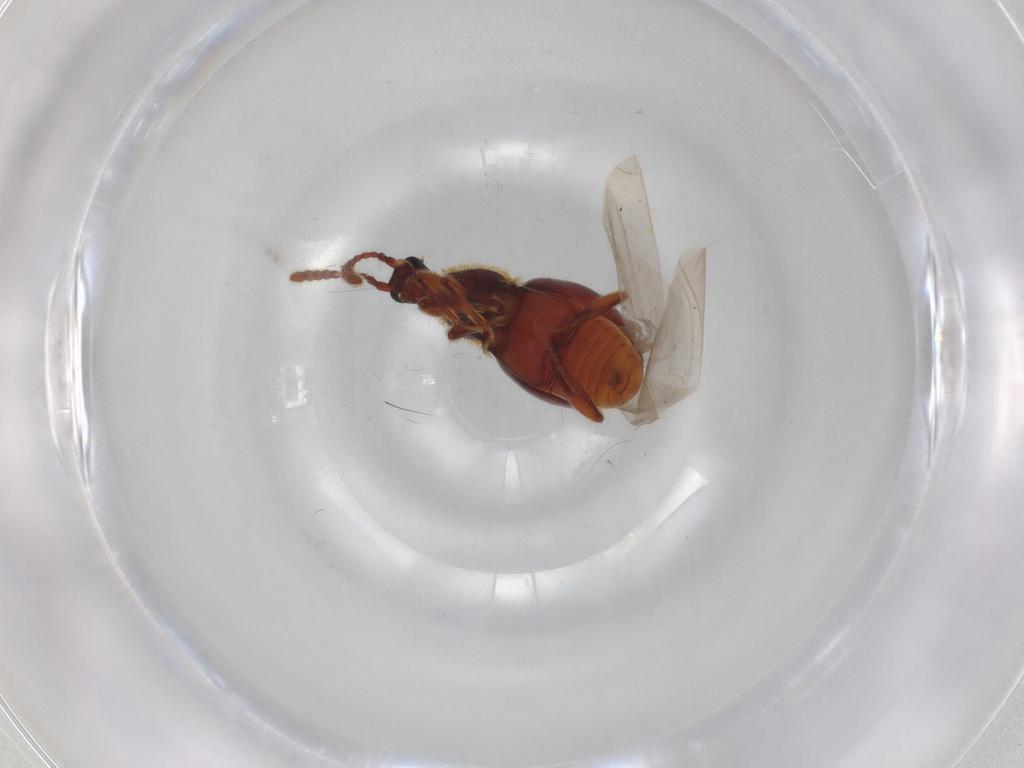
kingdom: Animalia
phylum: Arthropoda
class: Insecta
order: Coleoptera
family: Staphylinidae
